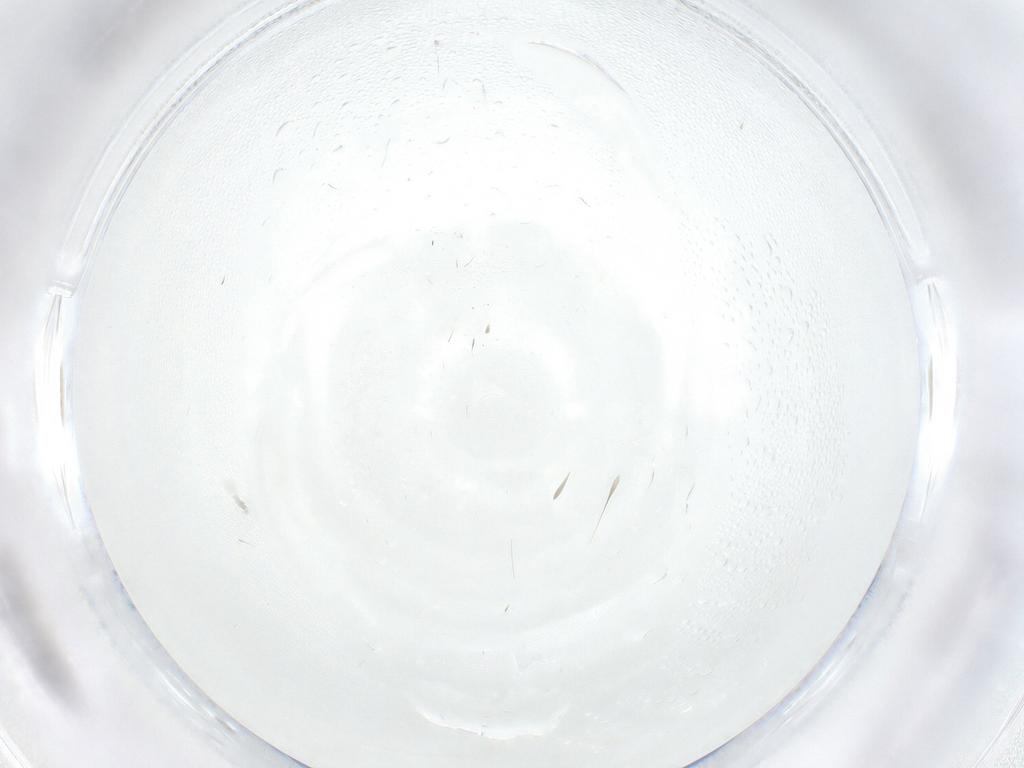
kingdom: Animalia
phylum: Arthropoda
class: Insecta
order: Diptera
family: Limoniidae
